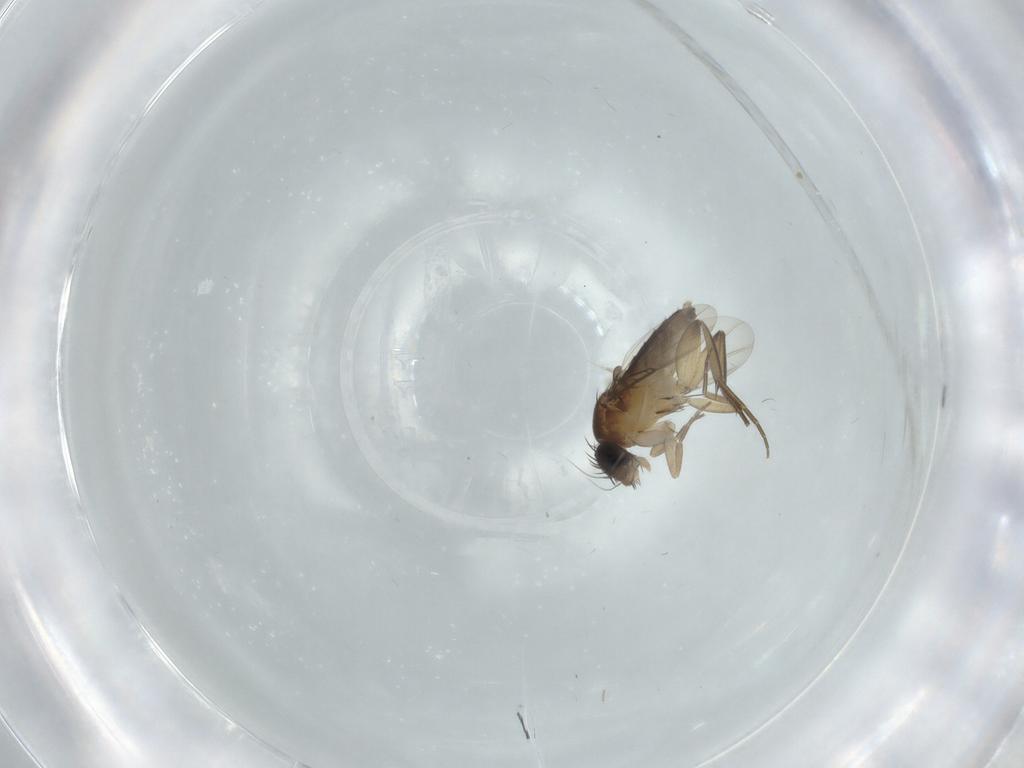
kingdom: Animalia
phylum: Arthropoda
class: Insecta
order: Diptera
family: Phoridae
